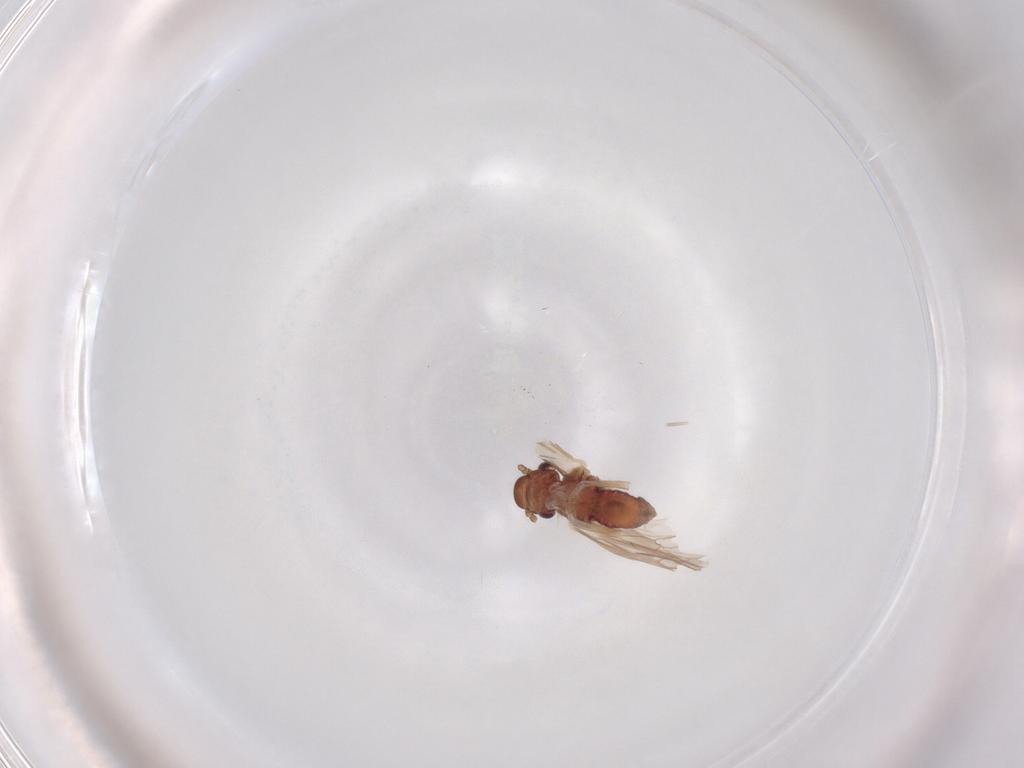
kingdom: Animalia
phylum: Arthropoda
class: Insecta
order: Psocodea
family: Caeciliusidae
